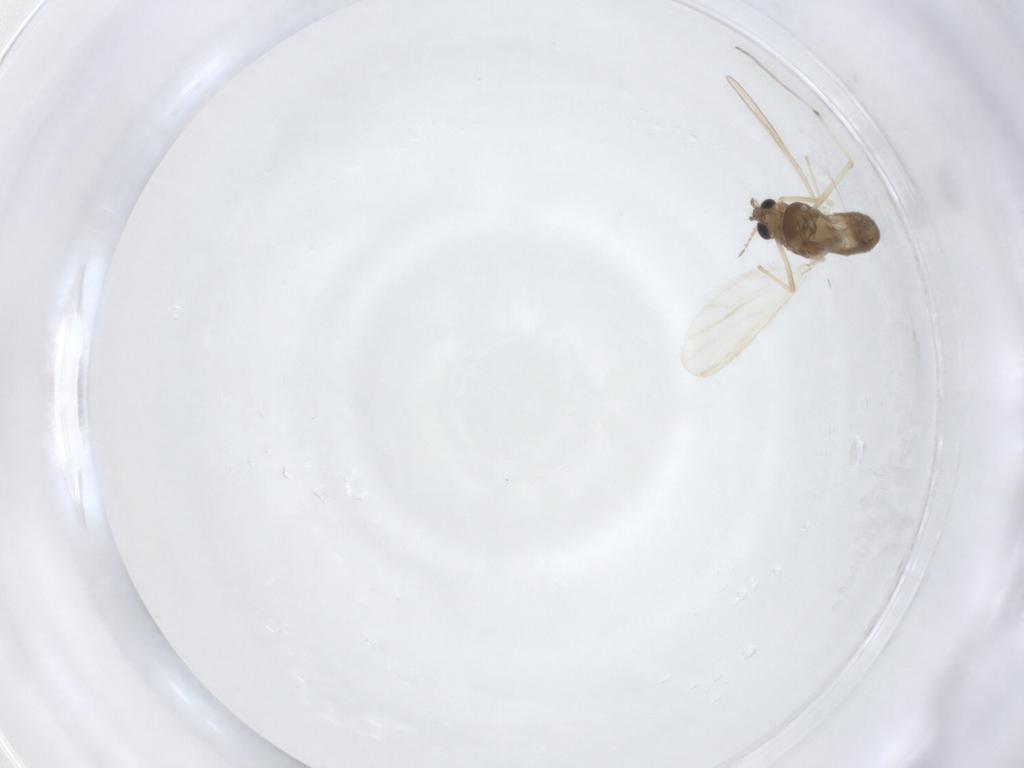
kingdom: Animalia
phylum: Arthropoda
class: Insecta
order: Diptera
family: Chironomidae
